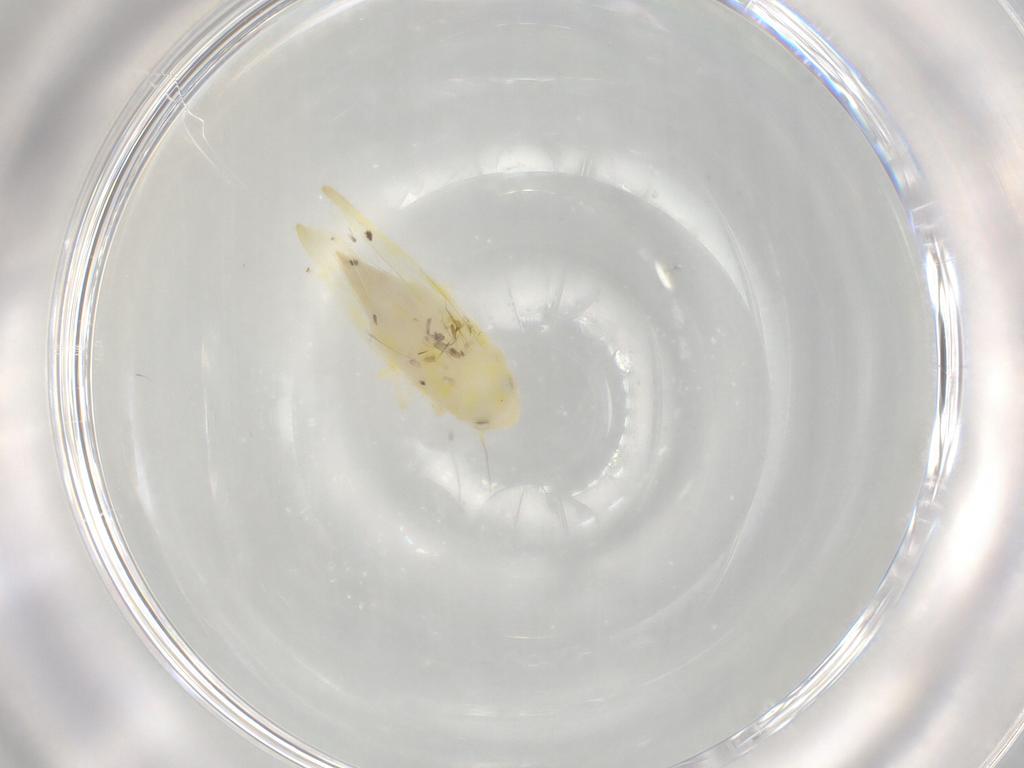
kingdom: Animalia
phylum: Arthropoda
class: Insecta
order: Hemiptera
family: Cicadellidae
